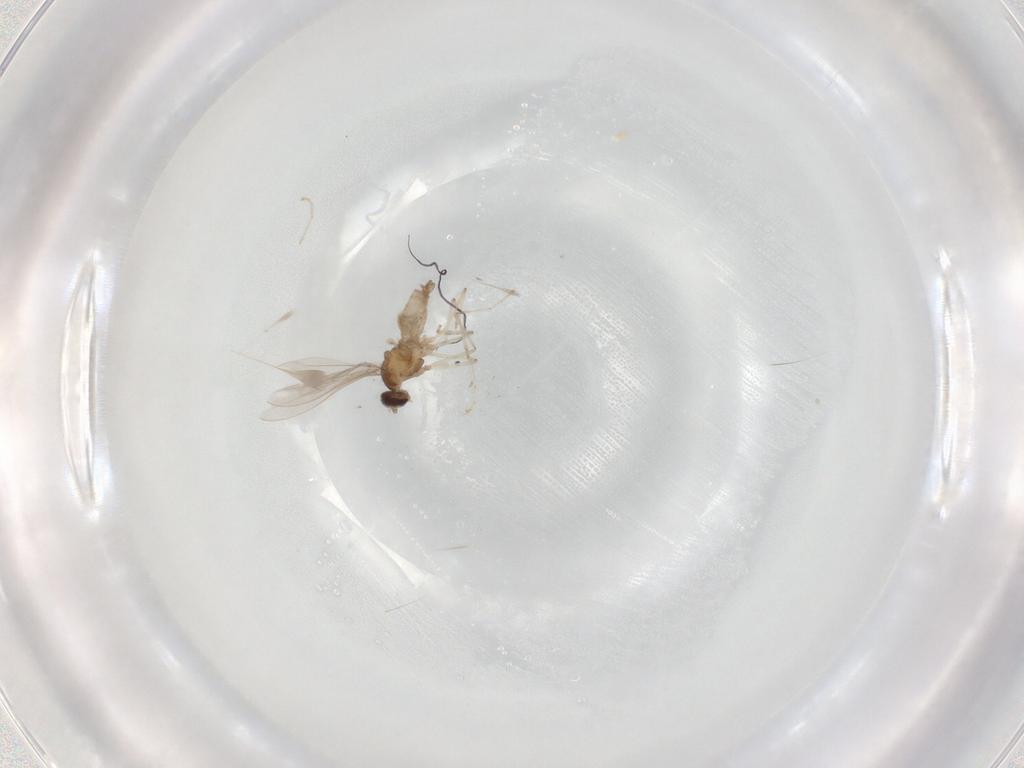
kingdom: Animalia
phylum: Arthropoda
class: Insecta
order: Diptera
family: Cecidomyiidae
